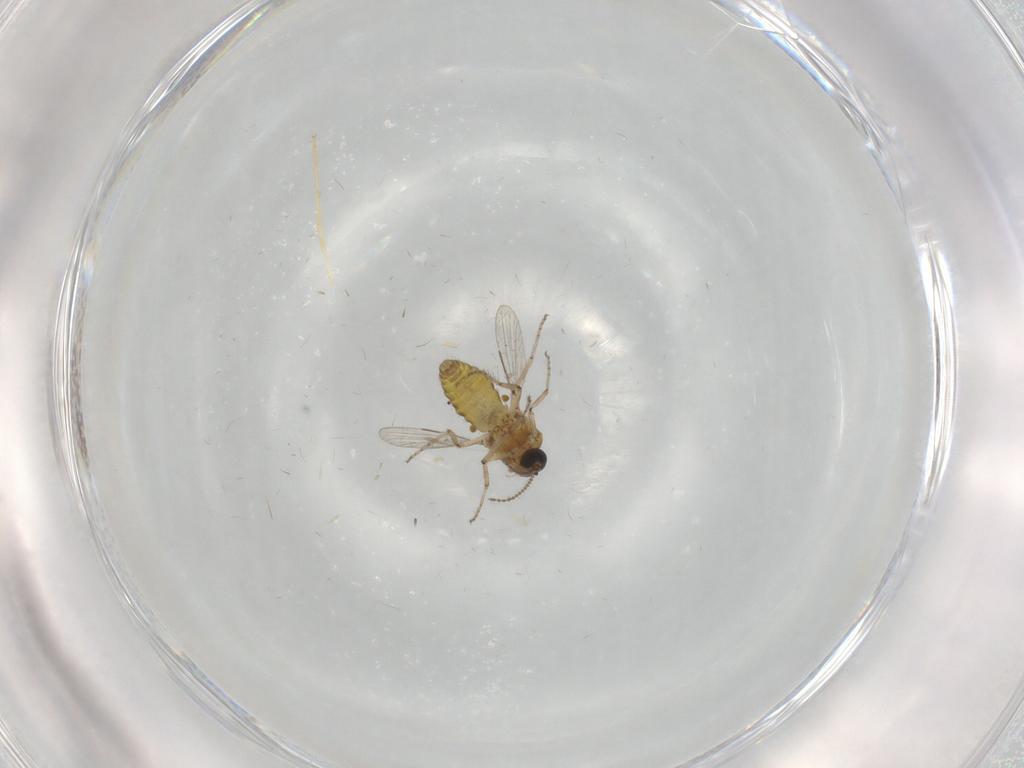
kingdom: Animalia
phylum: Arthropoda
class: Insecta
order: Diptera
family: Ceratopogonidae
